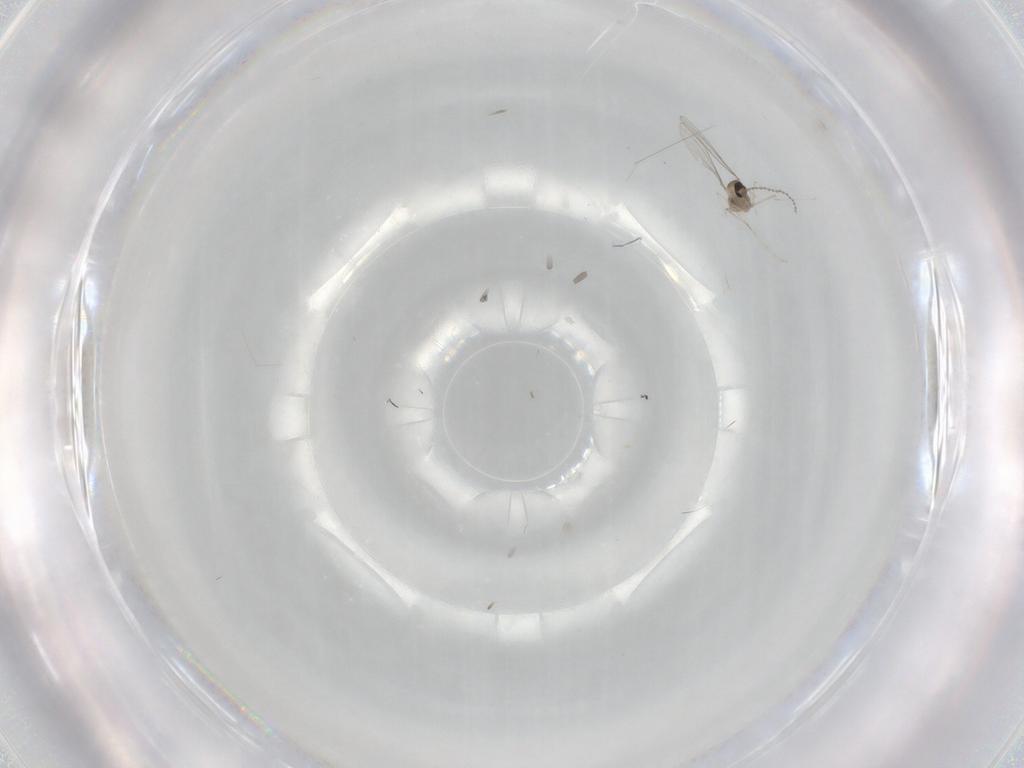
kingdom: Animalia
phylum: Arthropoda
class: Insecta
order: Diptera
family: Cecidomyiidae
